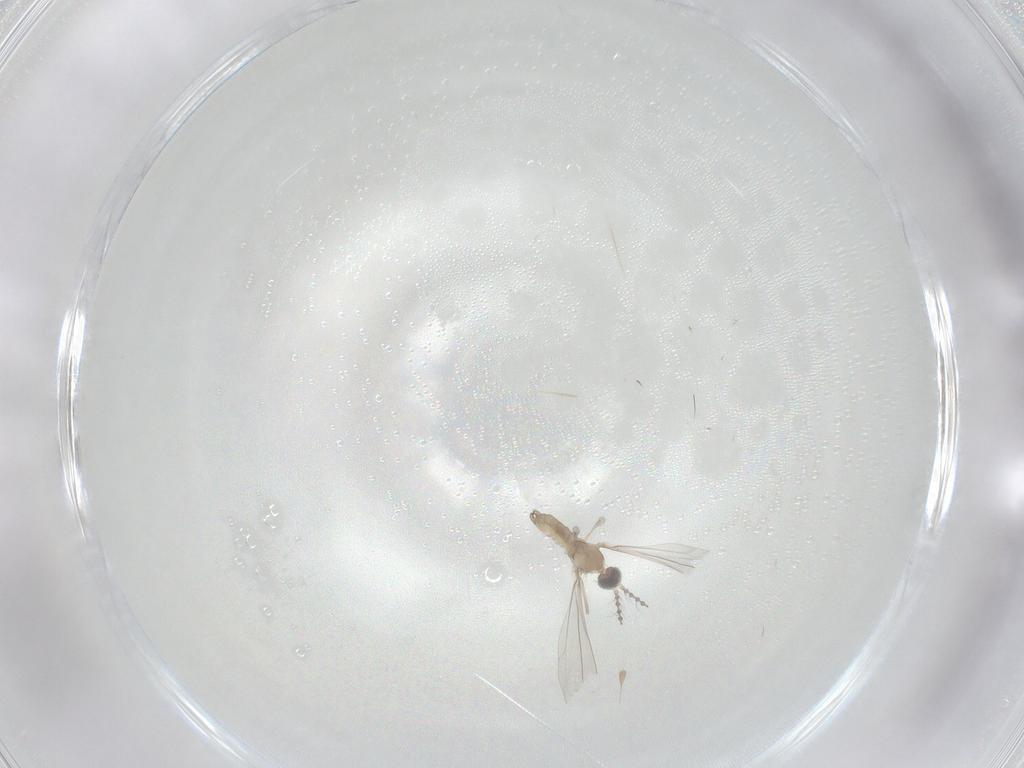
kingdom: Animalia
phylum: Arthropoda
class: Insecta
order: Diptera
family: Cecidomyiidae
